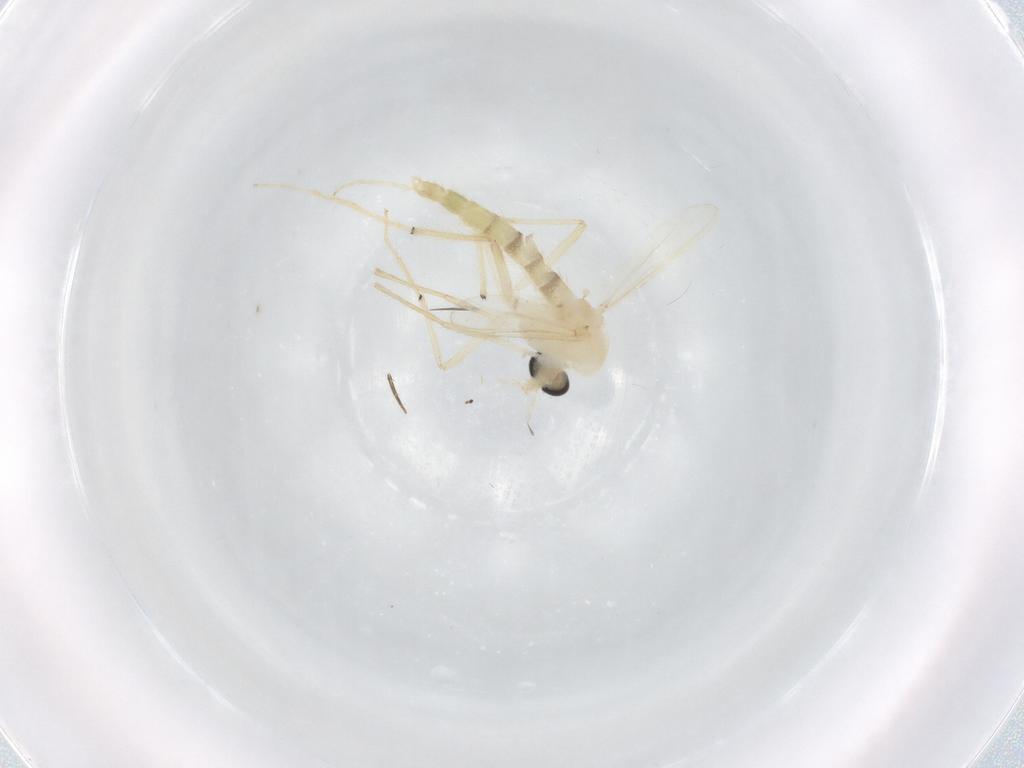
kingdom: Animalia
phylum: Arthropoda
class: Insecta
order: Diptera
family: Chironomidae
